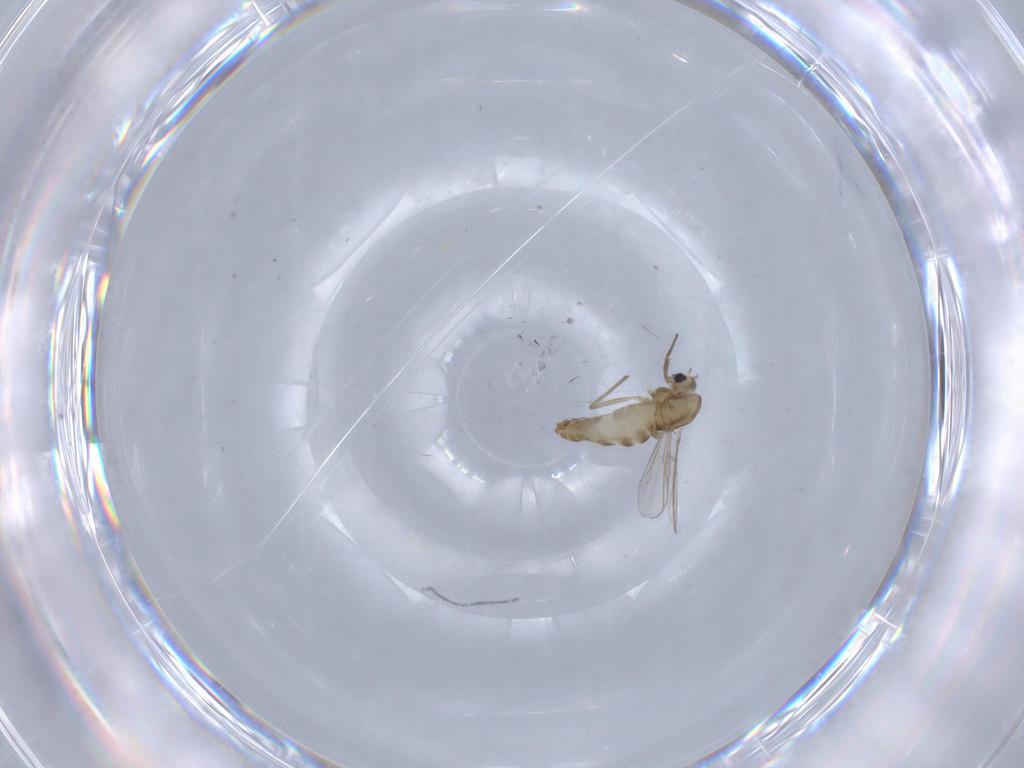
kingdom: Animalia
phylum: Arthropoda
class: Insecta
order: Diptera
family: Chironomidae
